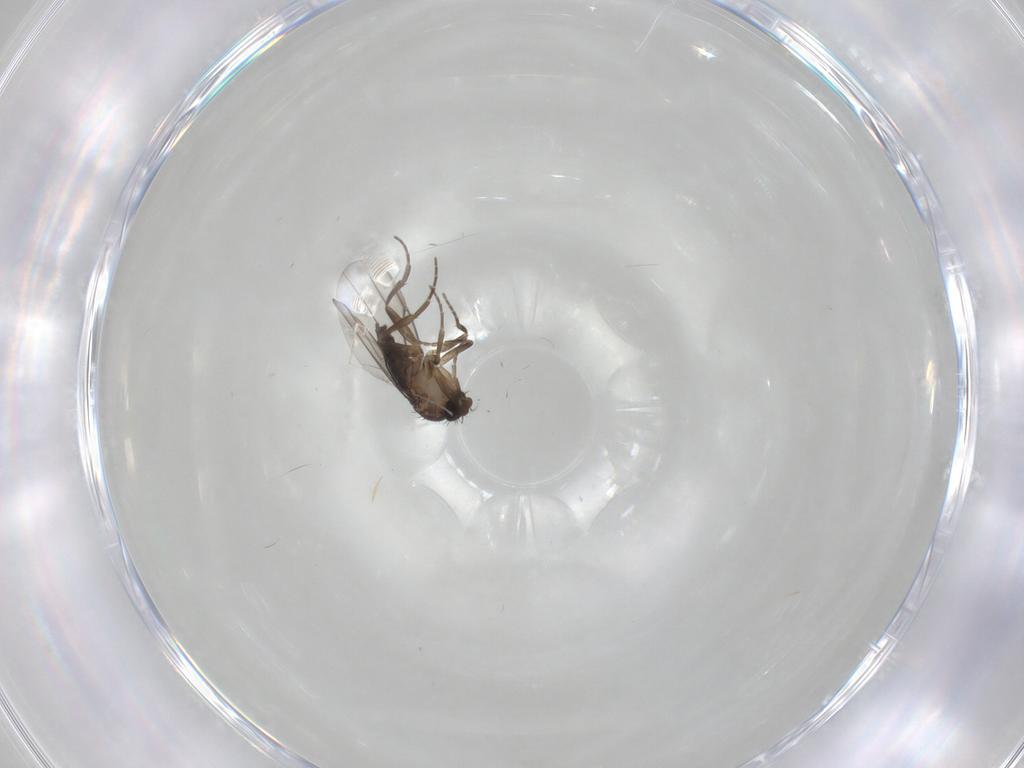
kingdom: Animalia
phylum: Arthropoda
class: Insecta
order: Diptera
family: Phoridae
